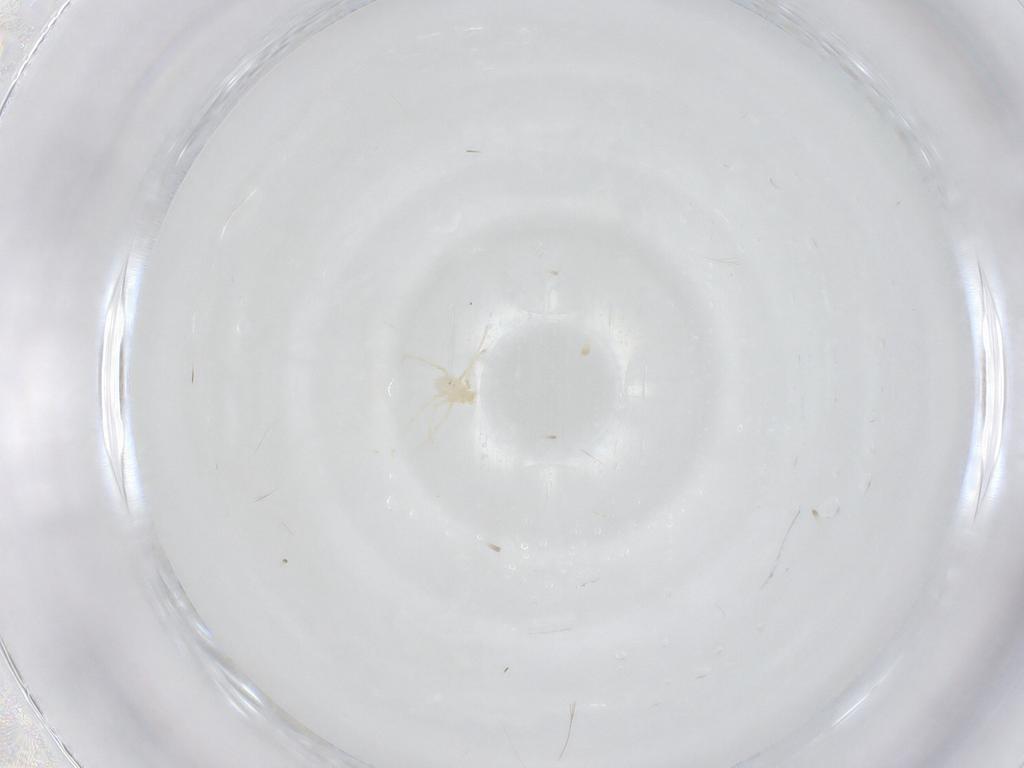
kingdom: Animalia
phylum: Arthropoda
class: Arachnida
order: Trombidiformes
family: Erythraeidae
